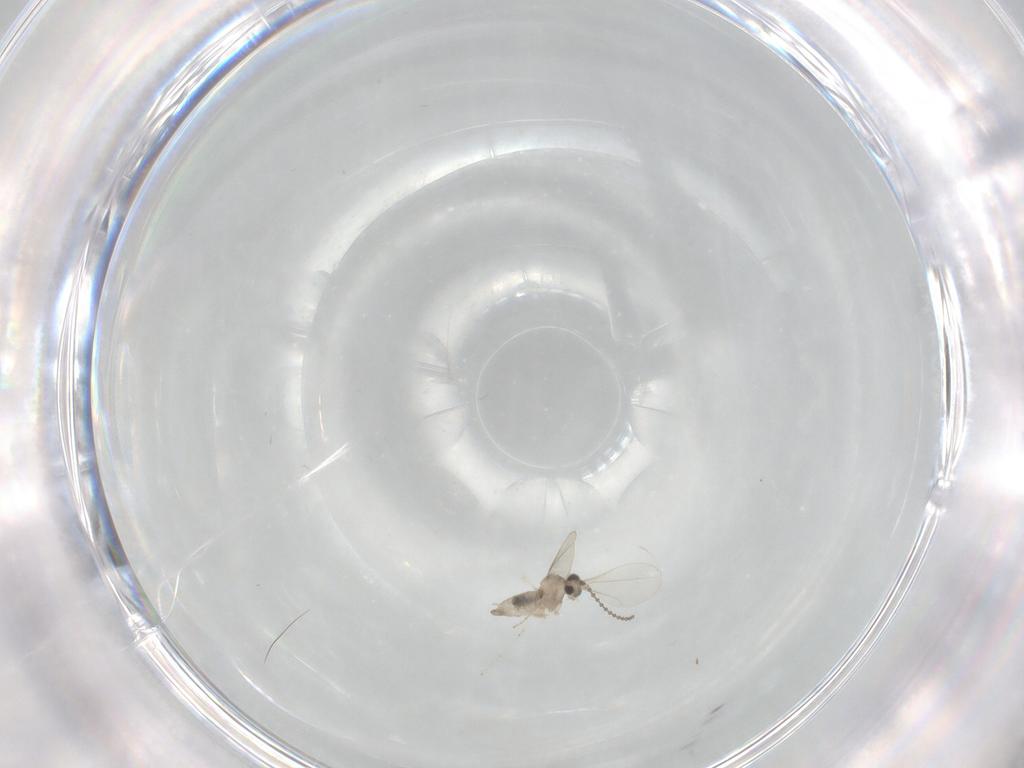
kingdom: Animalia
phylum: Arthropoda
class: Insecta
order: Diptera
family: Cecidomyiidae
